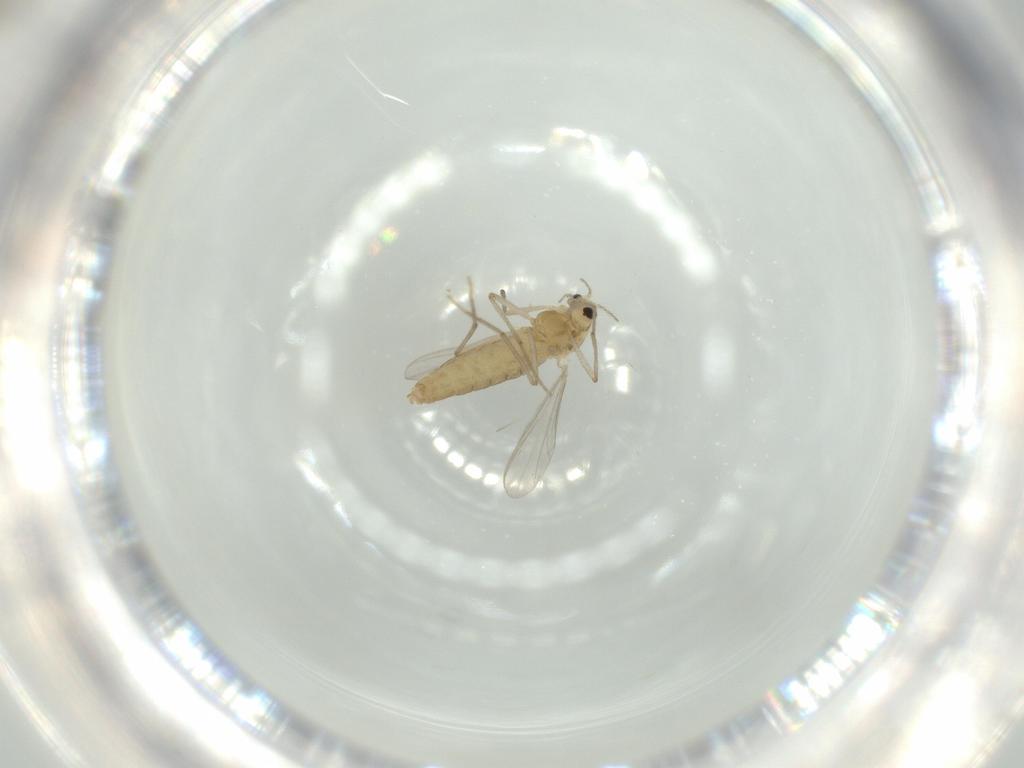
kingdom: Animalia
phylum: Arthropoda
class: Insecta
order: Diptera
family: Chironomidae
